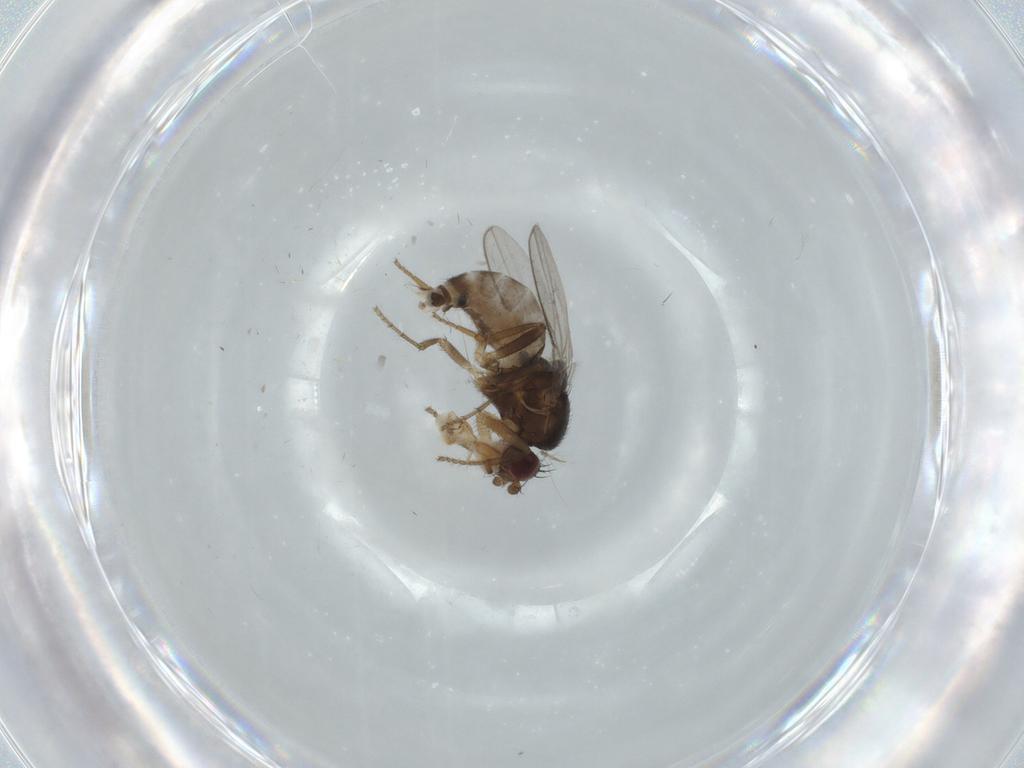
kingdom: Animalia
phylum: Arthropoda
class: Insecta
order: Diptera
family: Chironomidae
